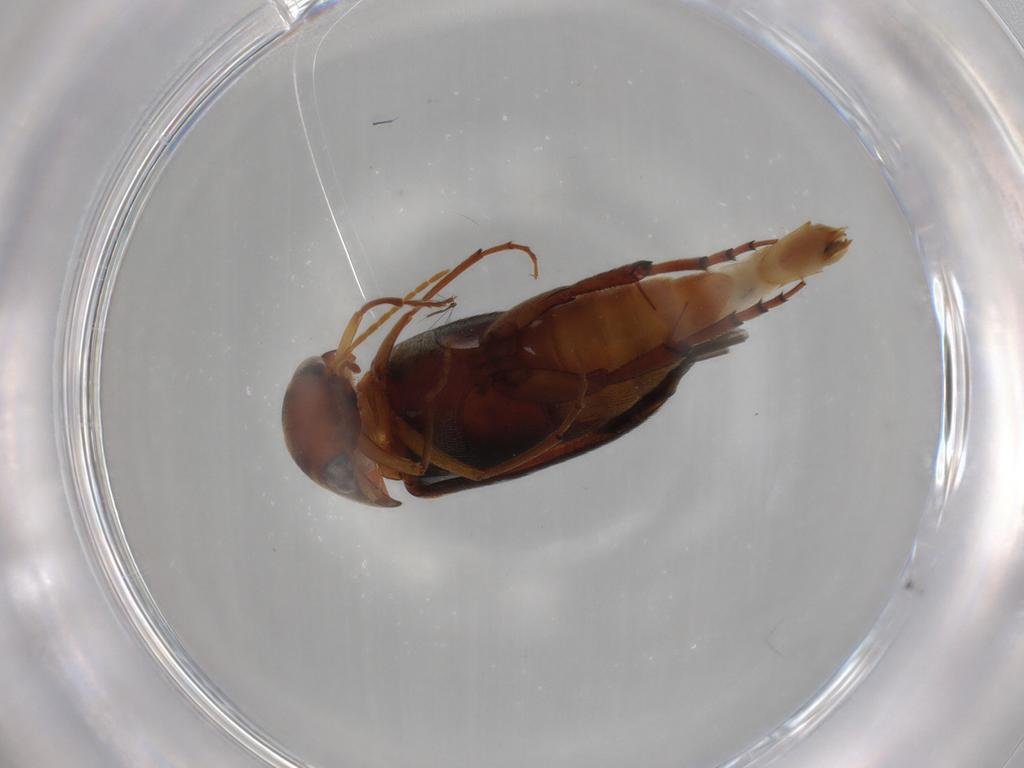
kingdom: Animalia
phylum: Arthropoda
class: Insecta
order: Coleoptera
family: Mordellidae
